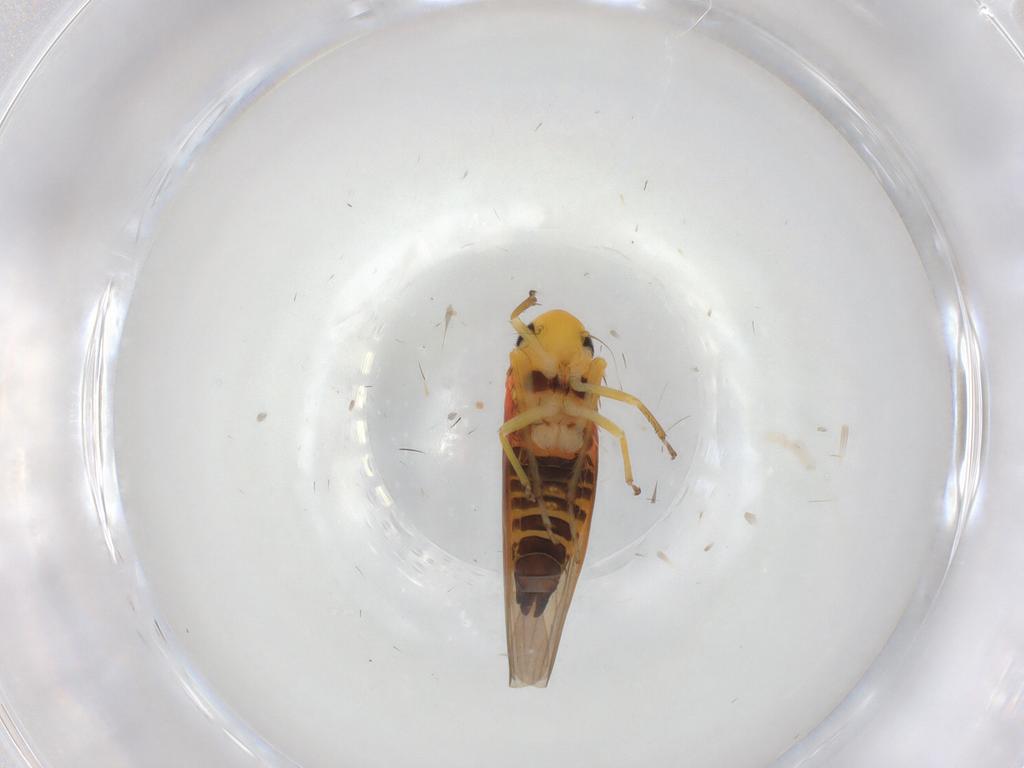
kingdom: Animalia
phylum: Arthropoda
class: Insecta
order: Hemiptera
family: Cicadellidae
